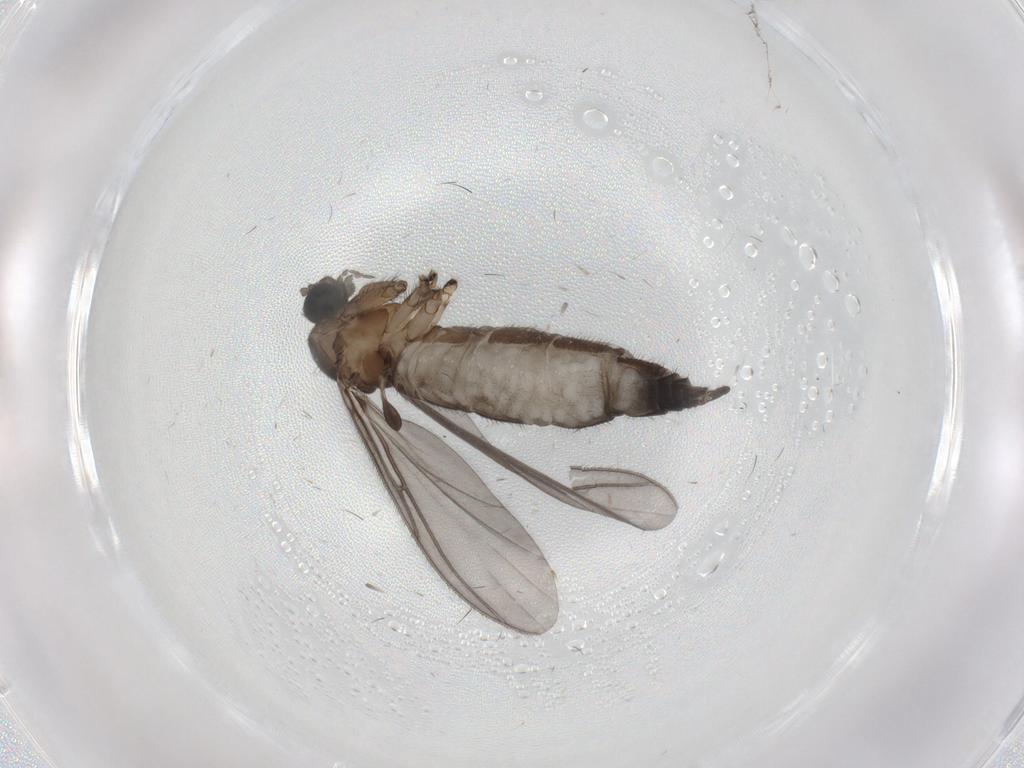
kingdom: Animalia
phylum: Arthropoda
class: Insecta
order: Diptera
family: Sciaridae
